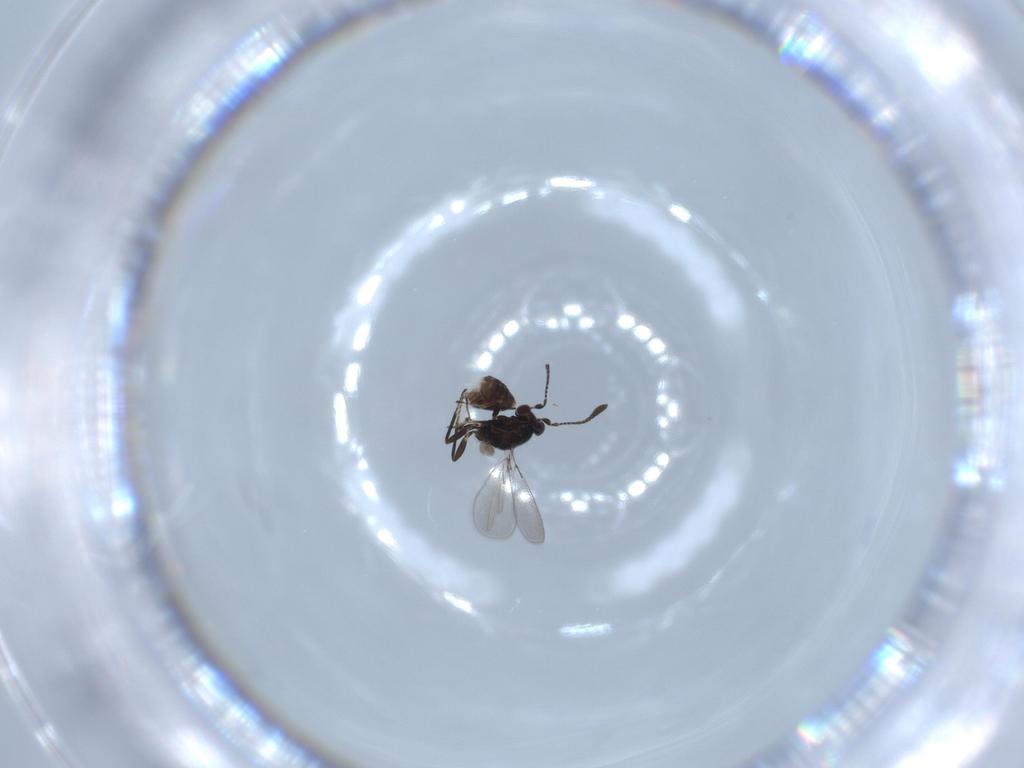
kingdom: Animalia
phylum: Arthropoda
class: Insecta
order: Hymenoptera
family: Mymaridae
